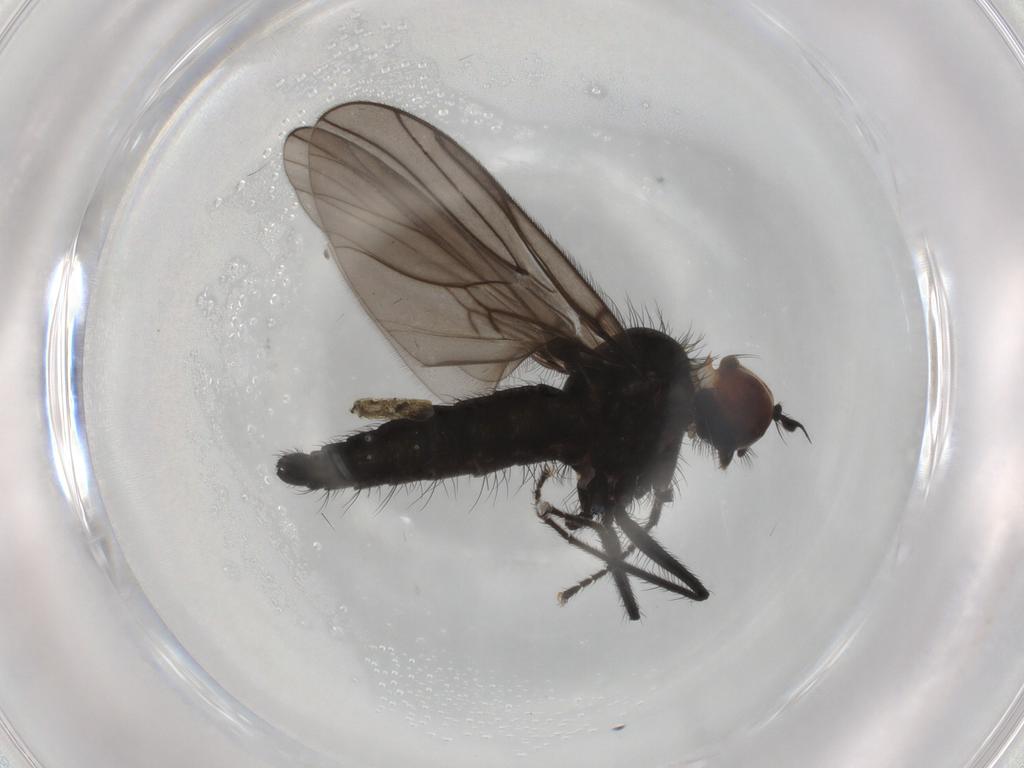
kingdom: Animalia
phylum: Arthropoda
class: Insecta
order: Diptera
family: Hybotidae
